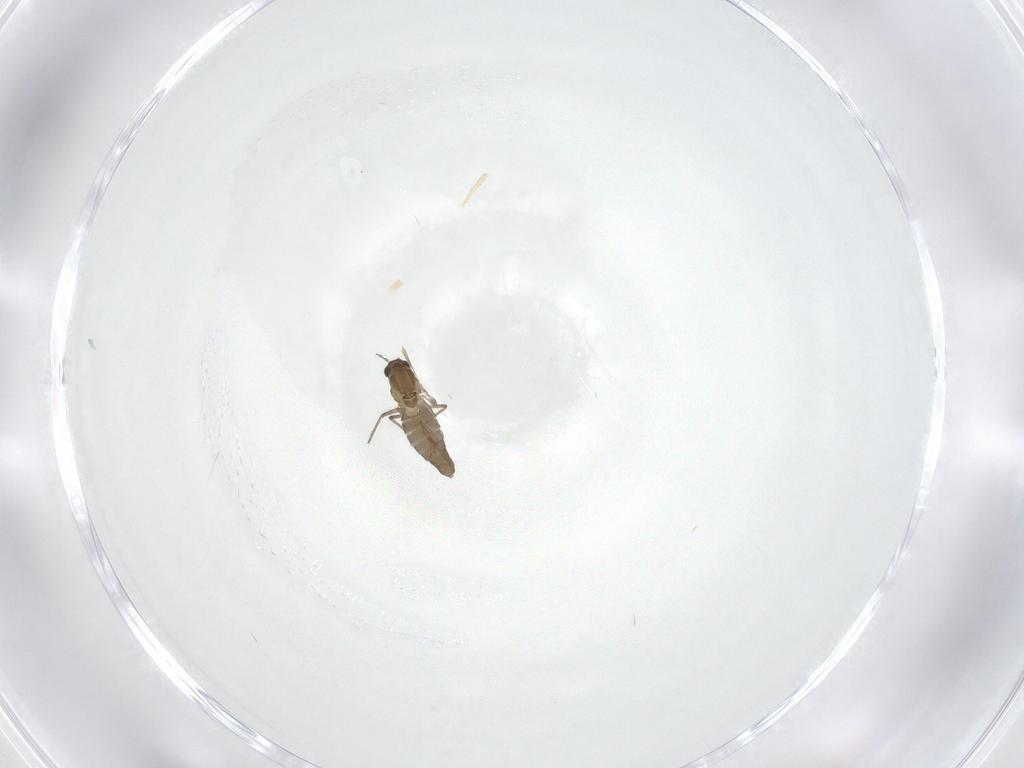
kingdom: Animalia
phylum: Arthropoda
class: Insecta
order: Diptera
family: Chironomidae
